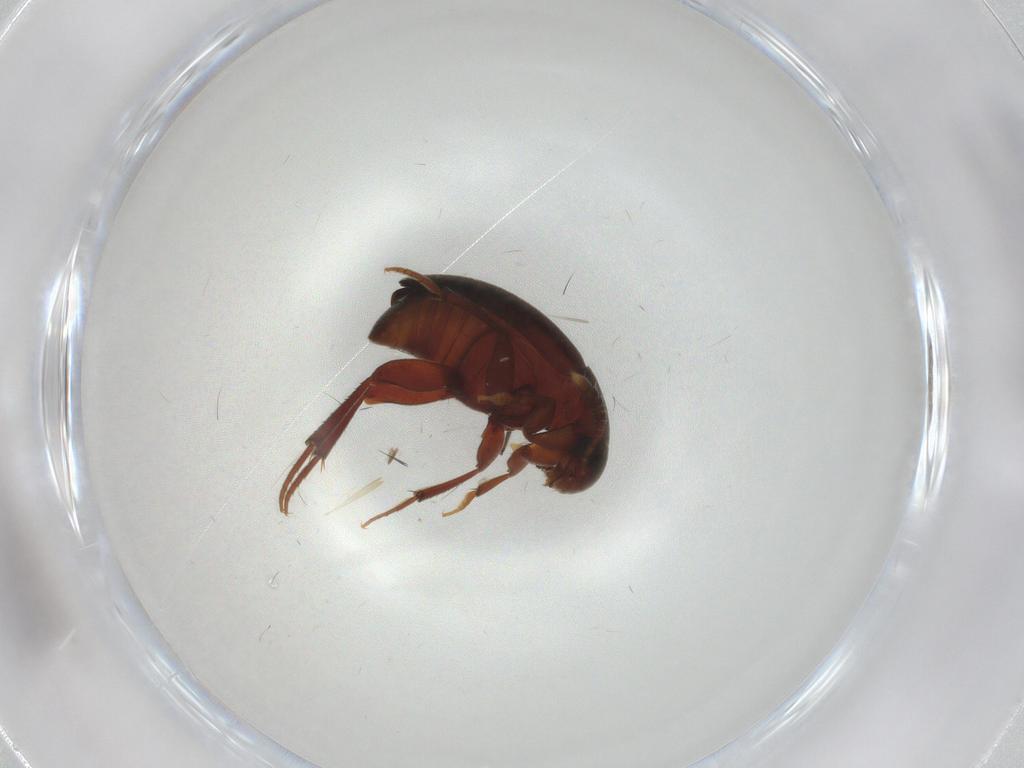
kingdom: Animalia
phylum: Arthropoda
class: Insecta
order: Coleoptera
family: Leiodidae
